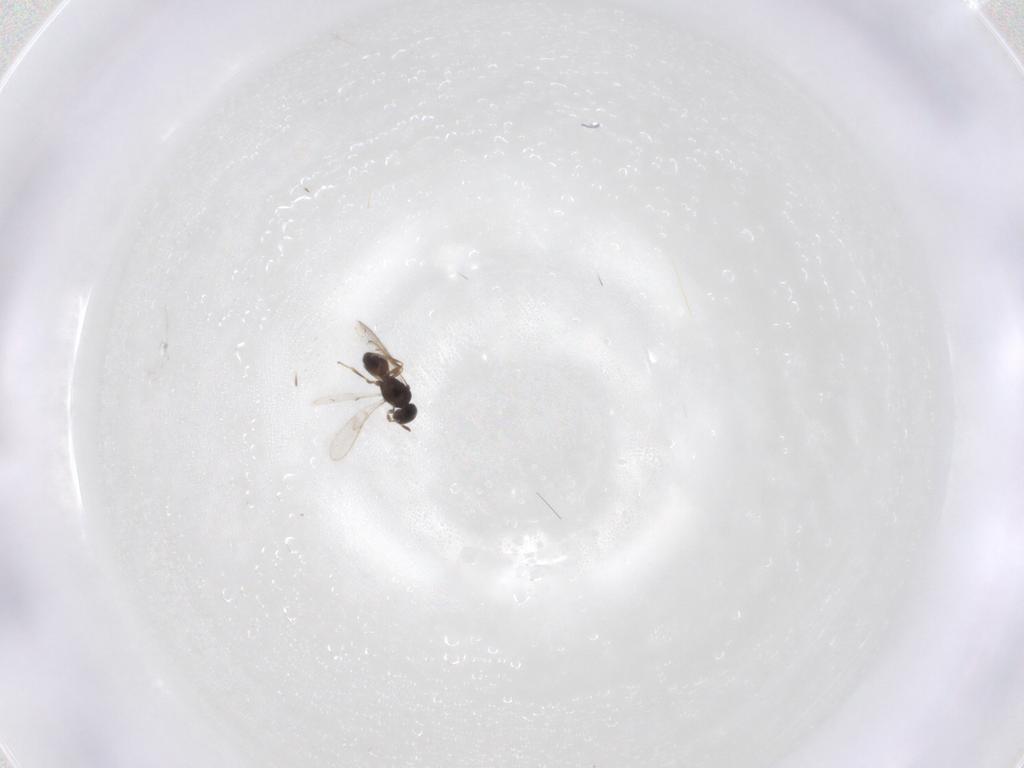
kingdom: Animalia
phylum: Arthropoda
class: Insecta
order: Hymenoptera
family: Scelionidae
